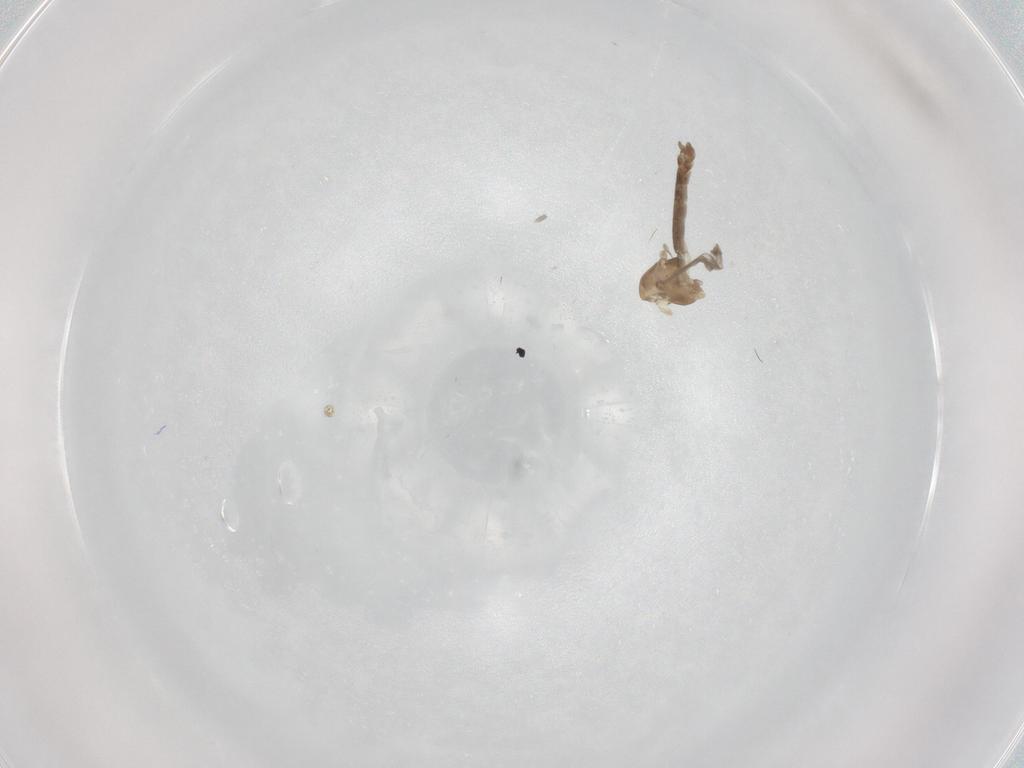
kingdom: Animalia
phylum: Arthropoda
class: Insecta
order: Diptera
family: Chironomidae
